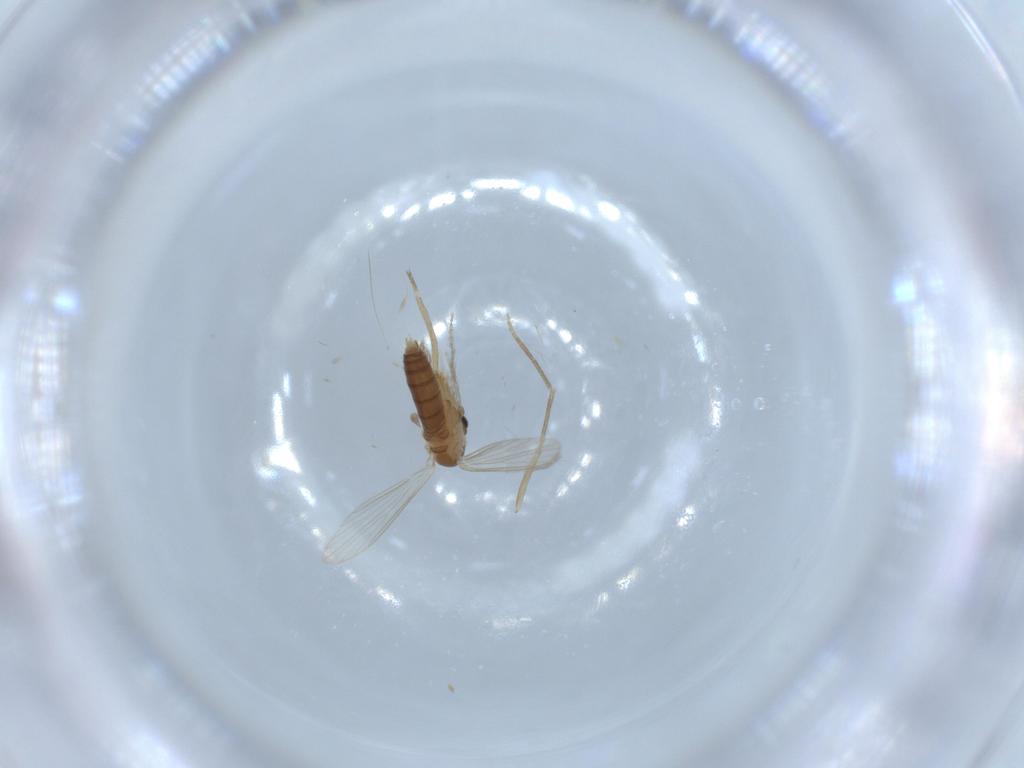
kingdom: Animalia
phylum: Arthropoda
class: Insecta
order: Diptera
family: Psychodidae
